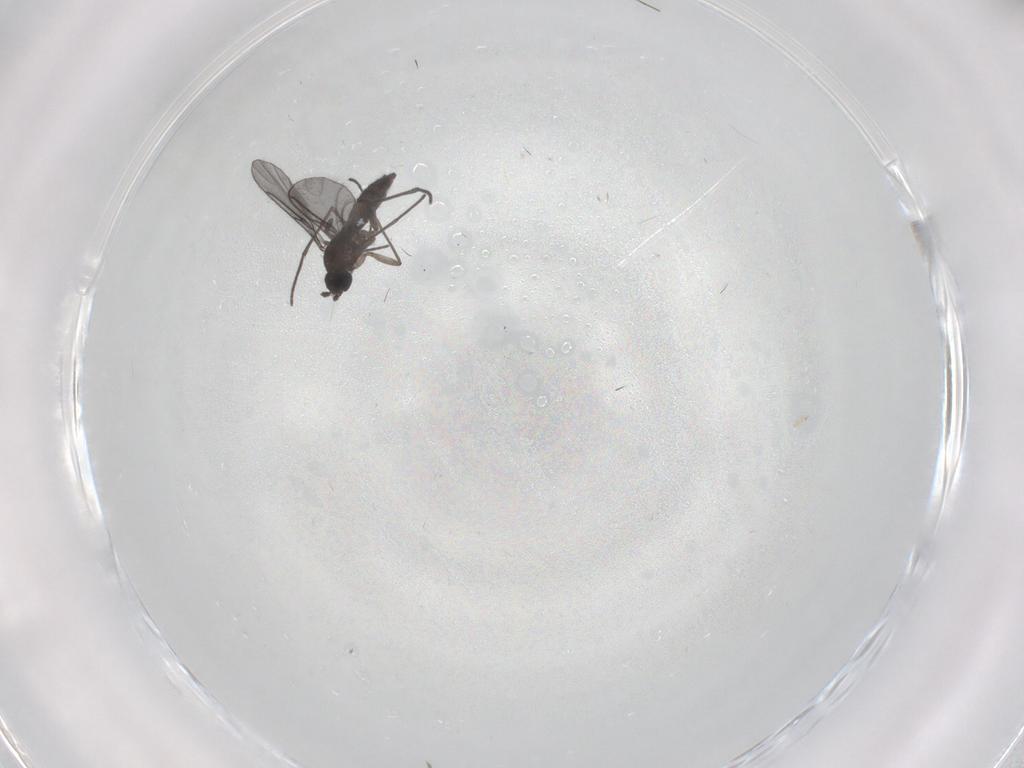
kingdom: Animalia
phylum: Arthropoda
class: Insecta
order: Diptera
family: Cecidomyiidae
